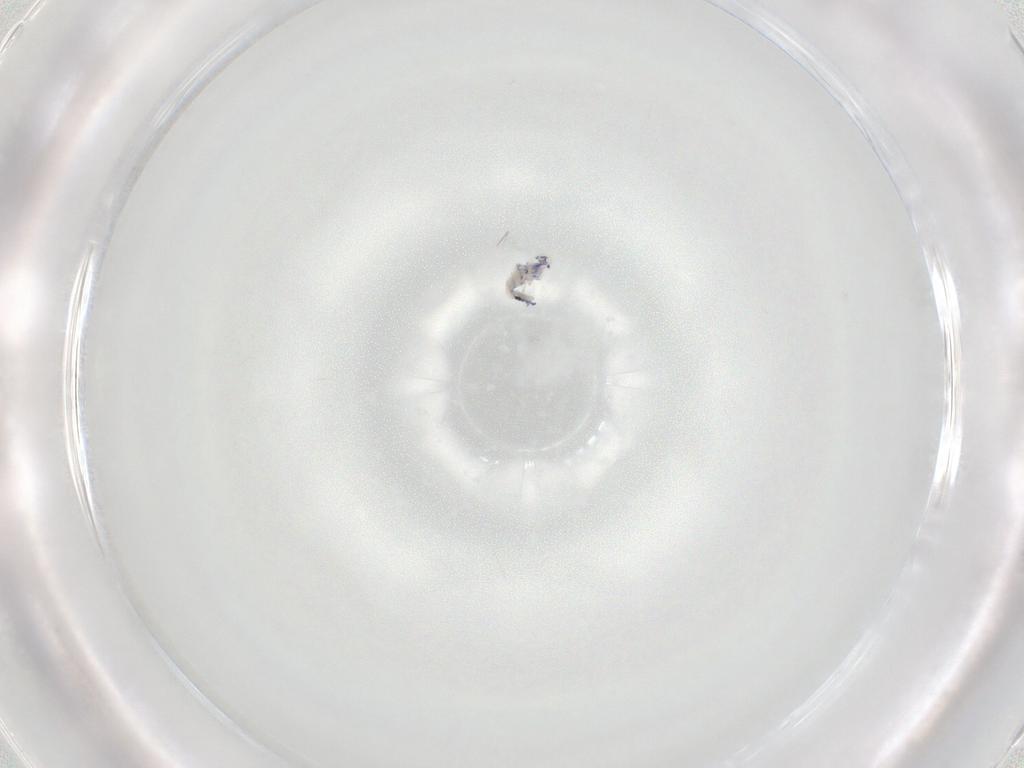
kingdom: Animalia
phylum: Arthropoda
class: Collembola
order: Entomobryomorpha
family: Entomobryidae
